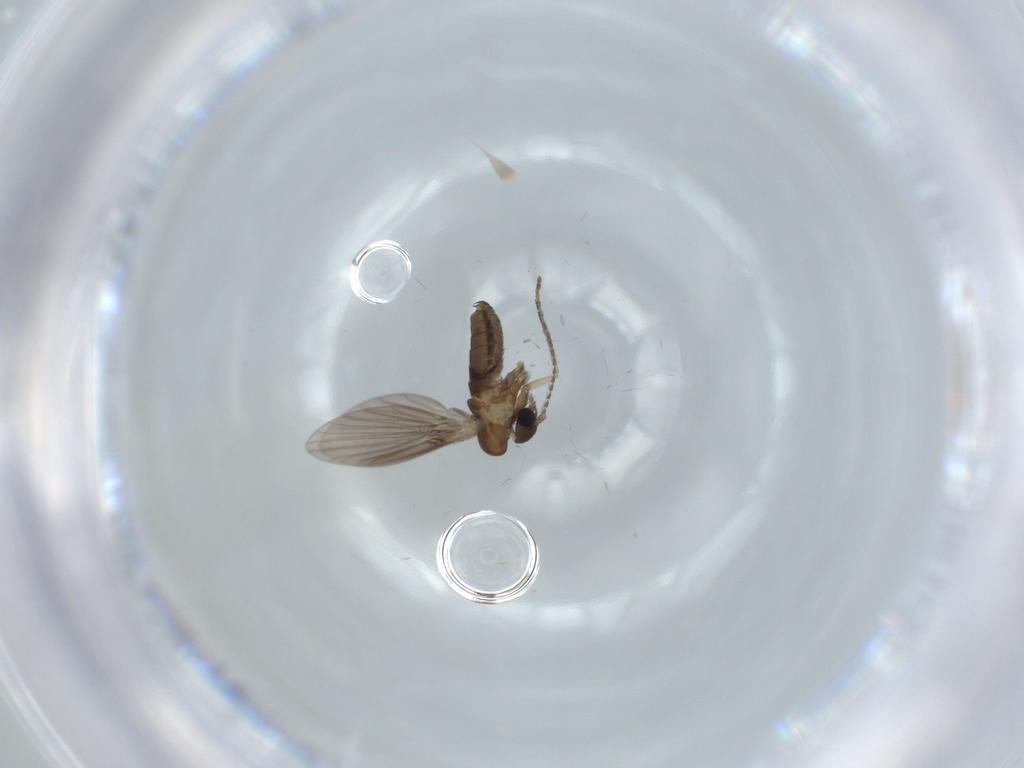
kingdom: Animalia
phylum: Arthropoda
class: Insecta
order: Diptera
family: Psychodidae
